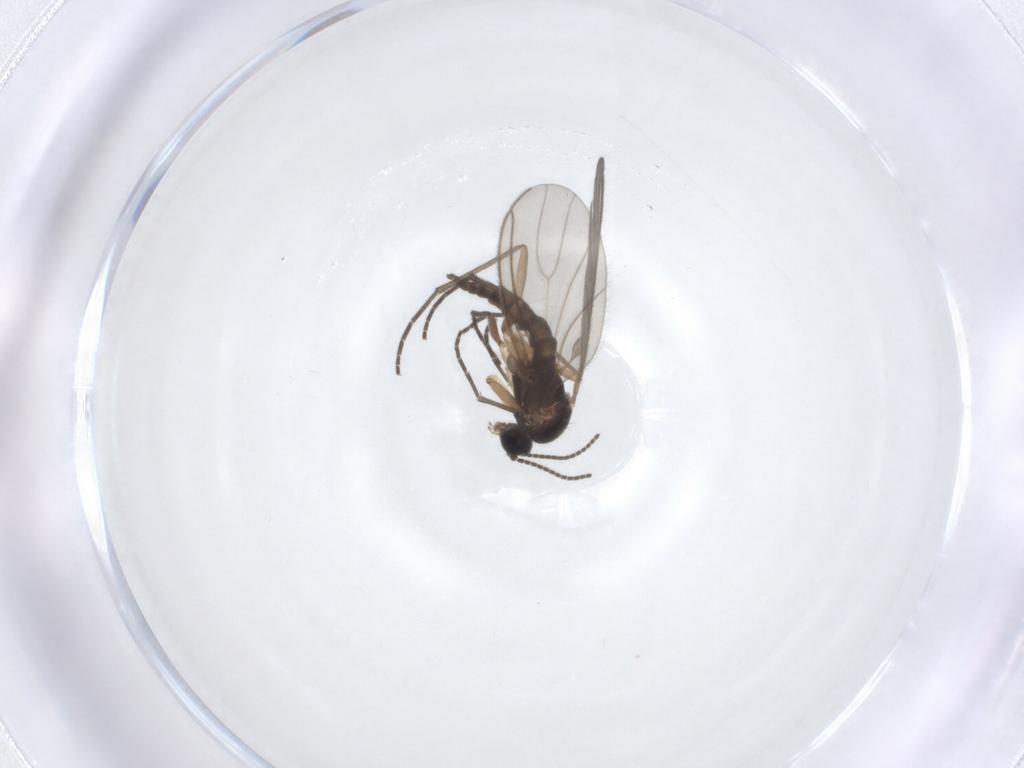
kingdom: Animalia
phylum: Arthropoda
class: Insecta
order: Diptera
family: Sciaridae
